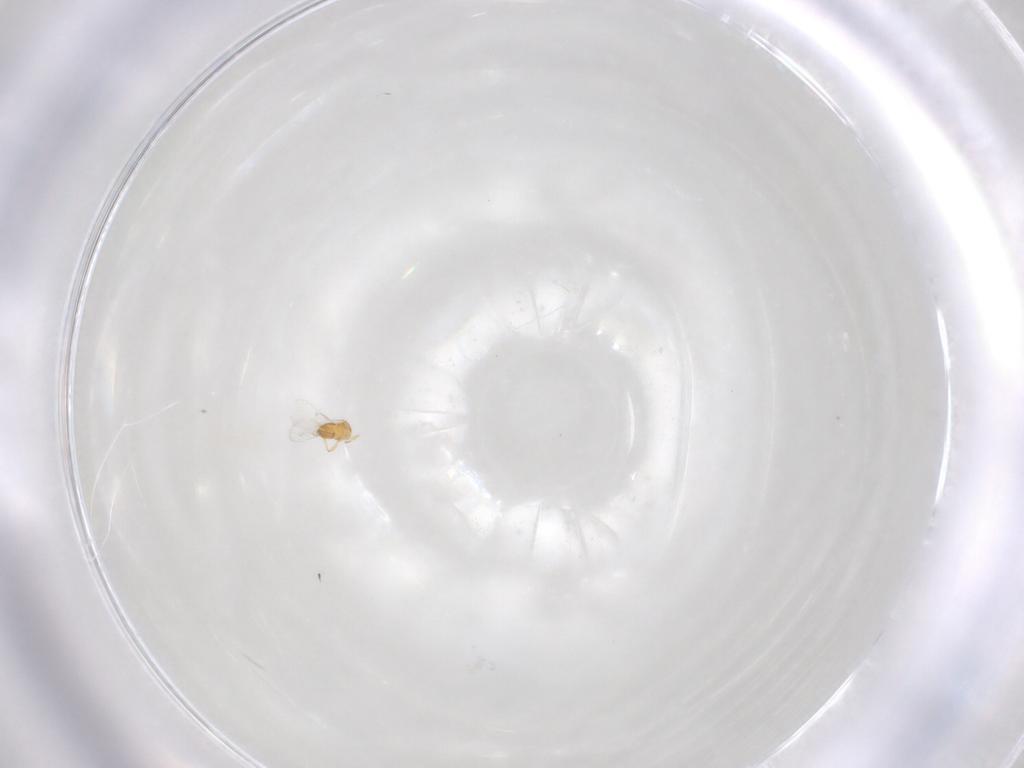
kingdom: Animalia
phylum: Arthropoda
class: Insecta
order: Hymenoptera
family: Trichogrammatidae
